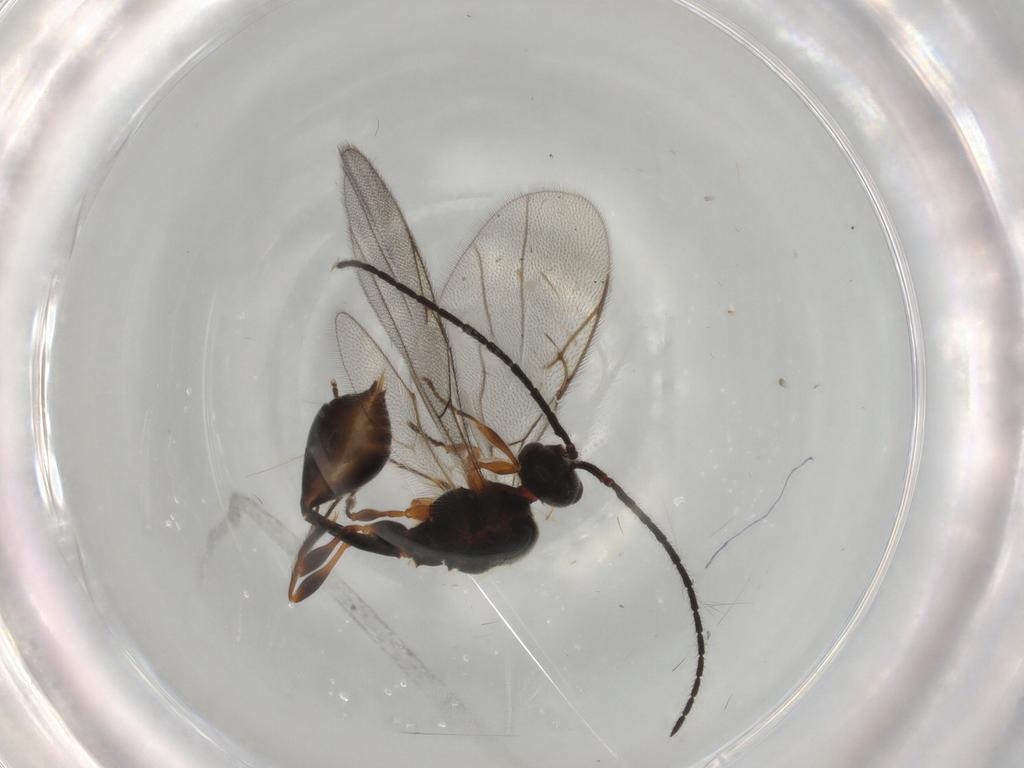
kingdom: Animalia
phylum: Arthropoda
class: Insecta
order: Hymenoptera
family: Diapriidae
